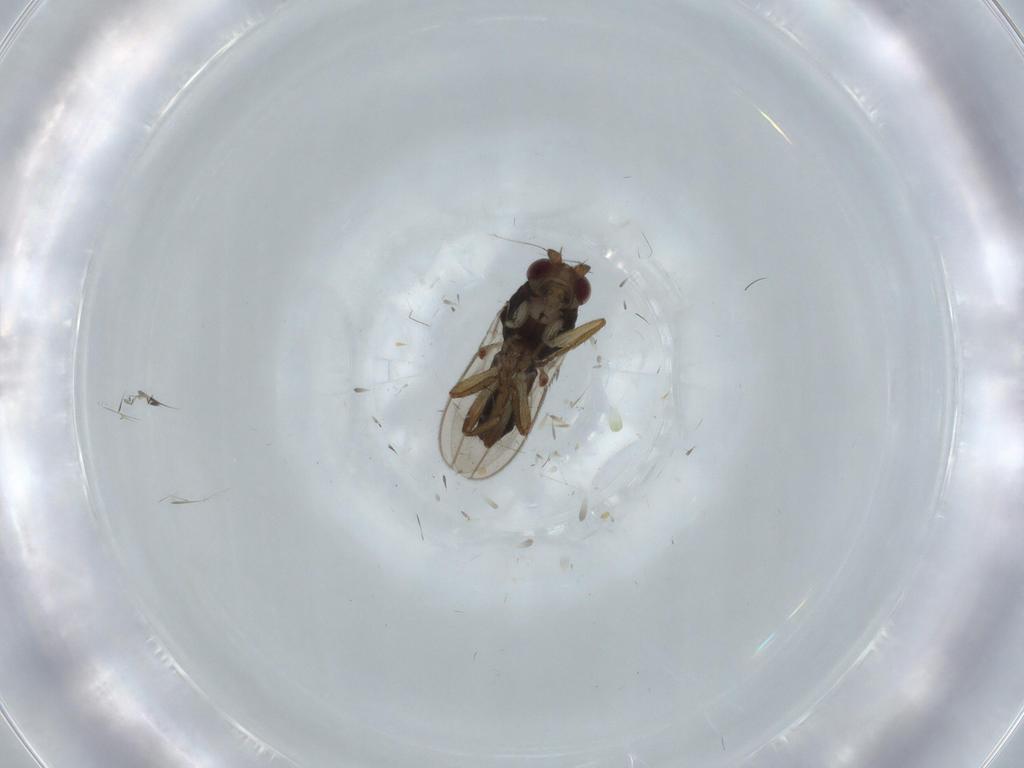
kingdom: Animalia
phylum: Arthropoda
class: Insecta
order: Diptera
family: Sphaeroceridae
